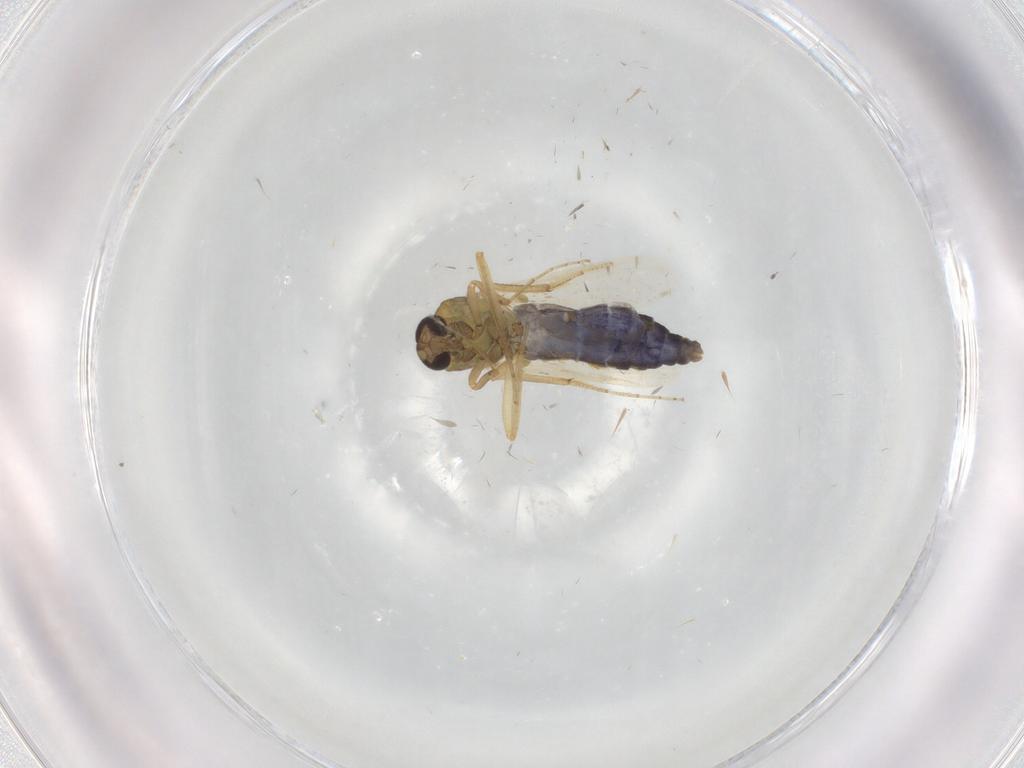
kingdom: Animalia
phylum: Arthropoda
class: Insecta
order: Diptera
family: Ceratopogonidae
